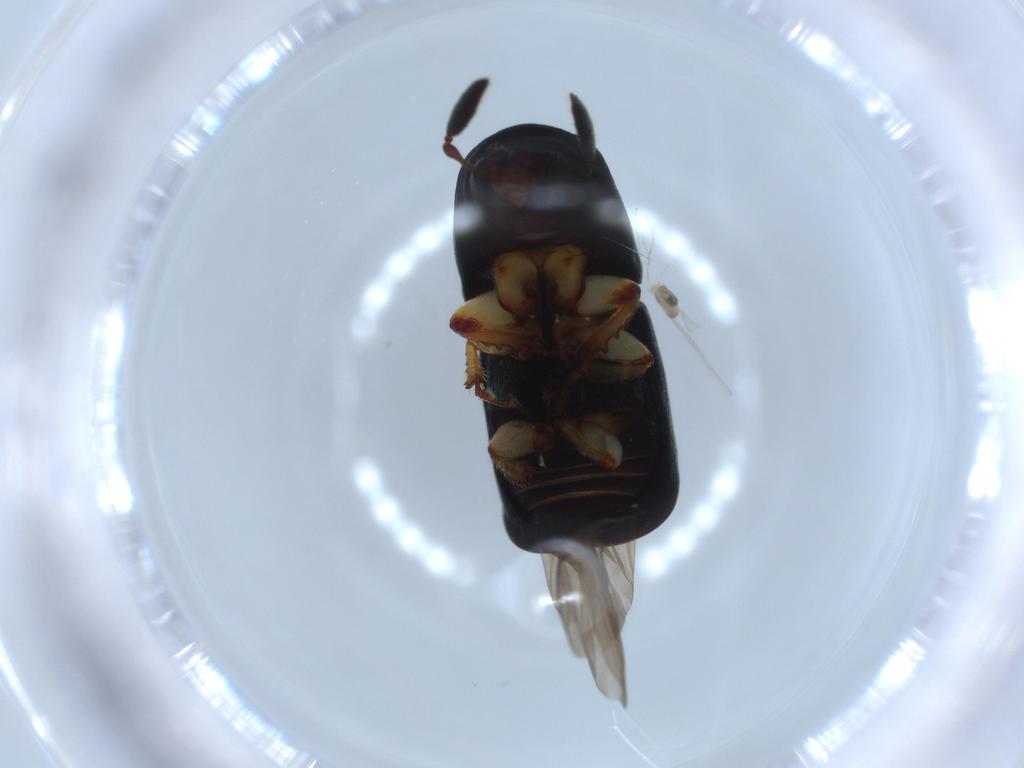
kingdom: Animalia
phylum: Arthropoda
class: Insecta
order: Coleoptera
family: Curculionidae
